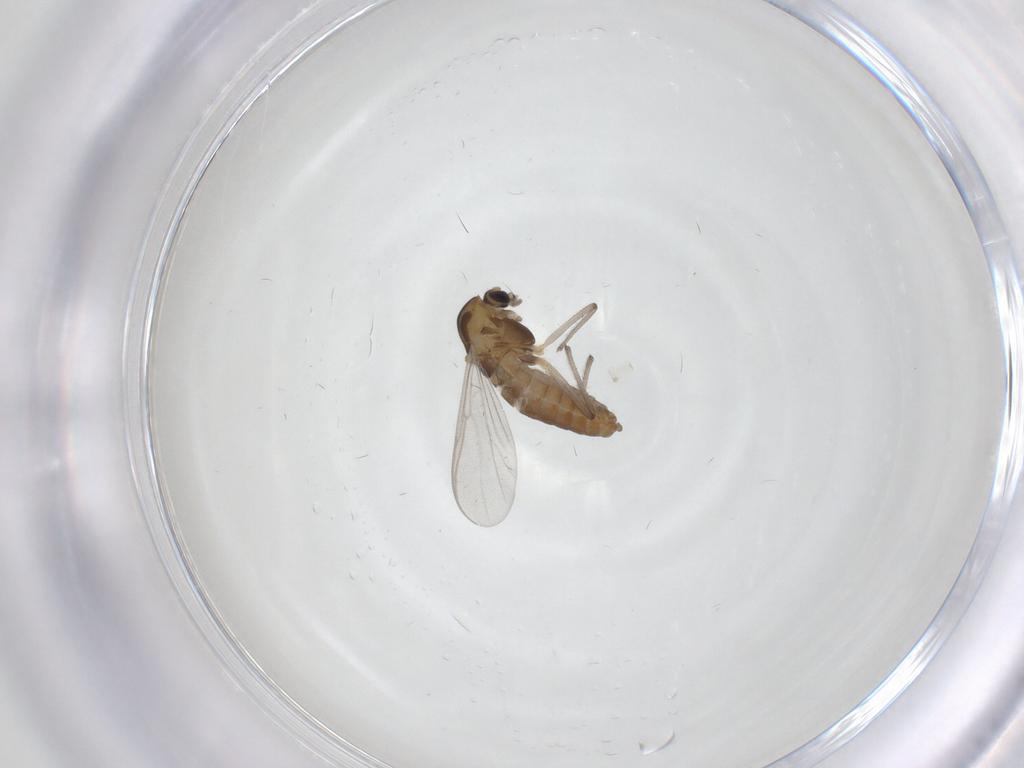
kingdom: Animalia
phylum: Arthropoda
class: Insecta
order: Diptera
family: Chironomidae
